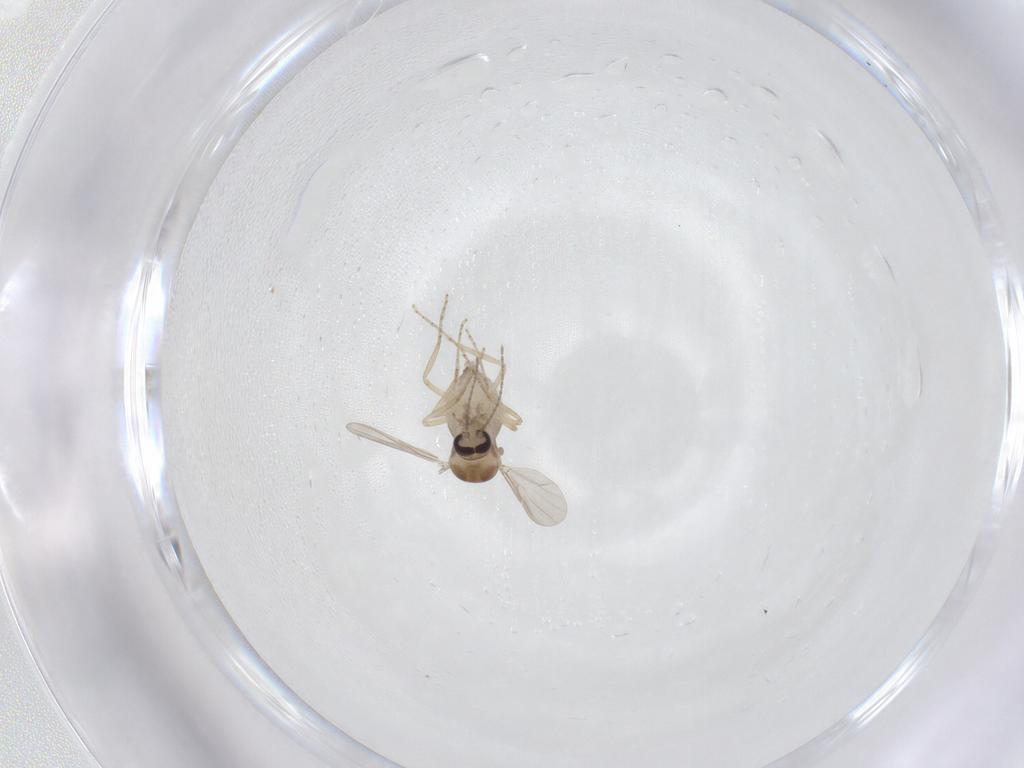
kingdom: Animalia
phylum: Arthropoda
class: Insecta
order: Diptera
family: Ceratopogonidae
